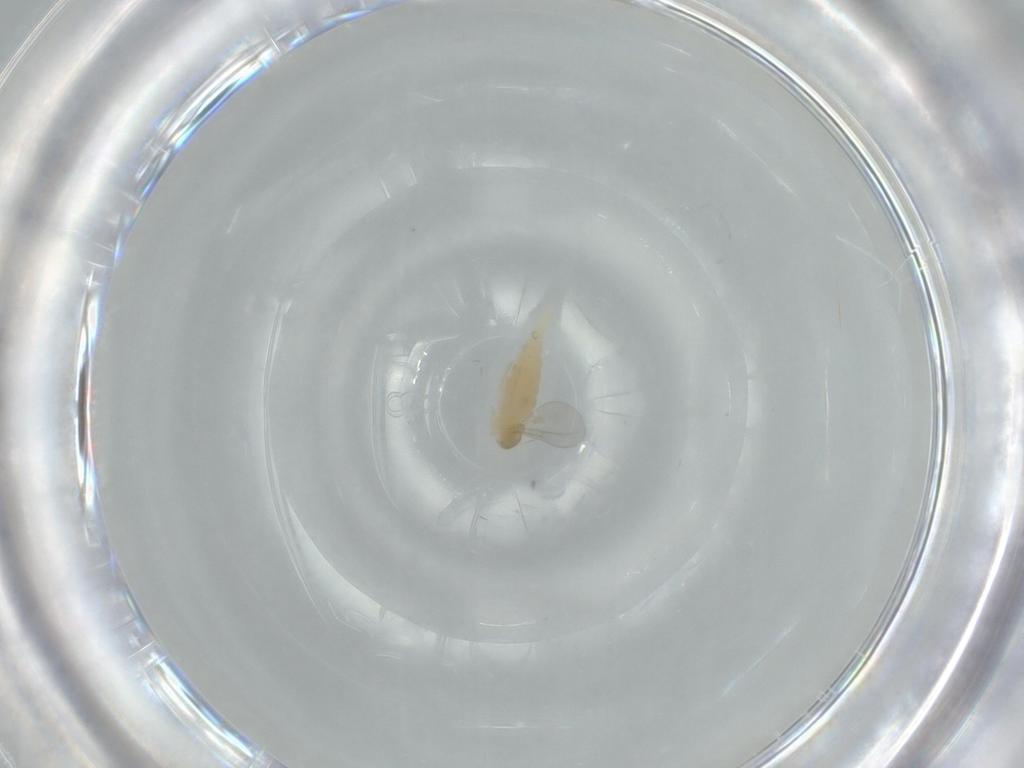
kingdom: Animalia
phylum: Arthropoda
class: Insecta
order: Diptera
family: Cecidomyiidae
